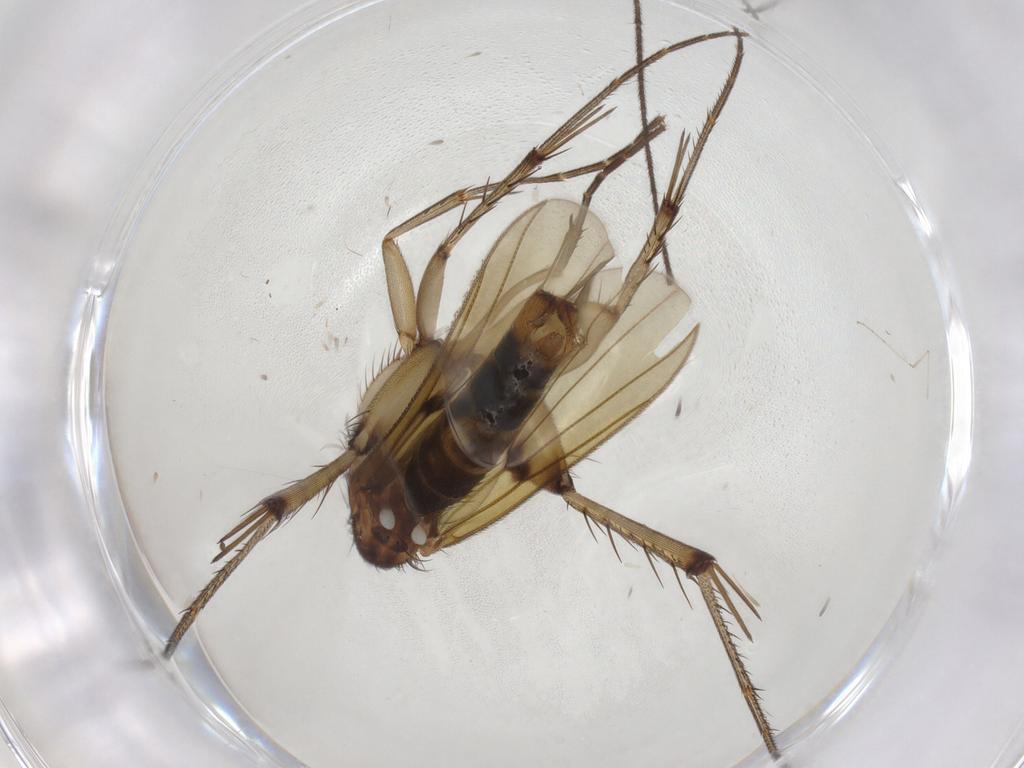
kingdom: Animalia
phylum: Arthropoda
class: Insecta
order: Diptera
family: Mycetophilidae
